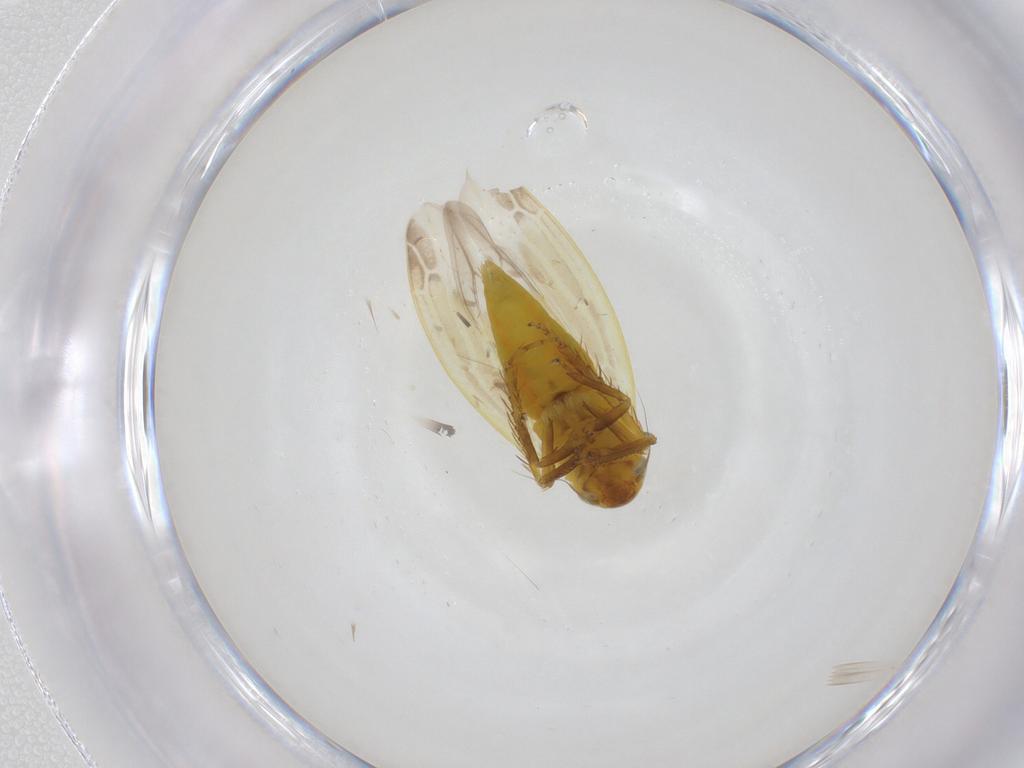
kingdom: Animalia
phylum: Arthropoda
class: Insecta
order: Hemiptera
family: Cicadellidae
